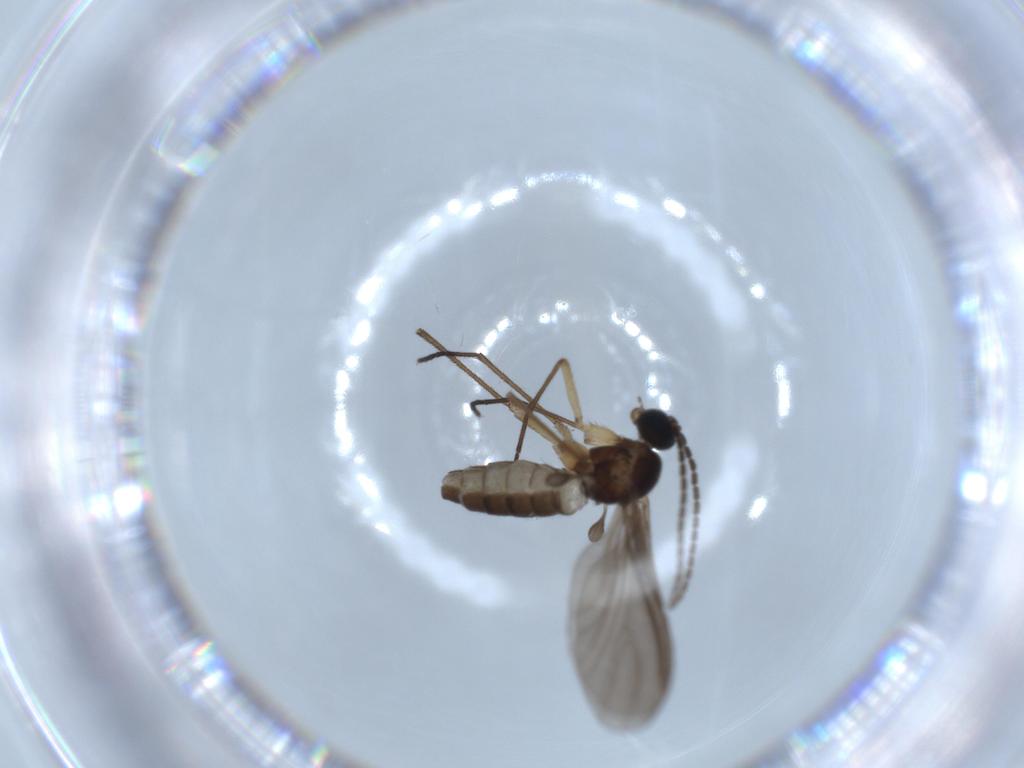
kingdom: Animalia
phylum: Arthropoda
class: Insecta
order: Diptera
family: Chironomidae
